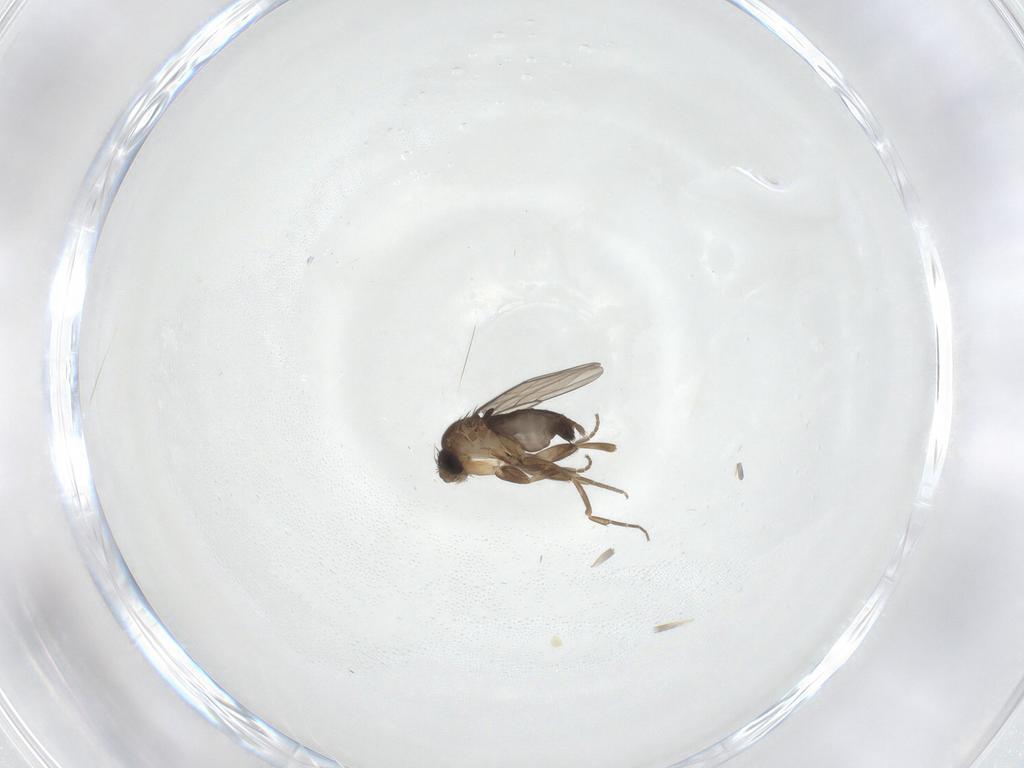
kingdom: Animalia
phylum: Arthropoda
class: Insecta
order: Diptera
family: Phoridae
